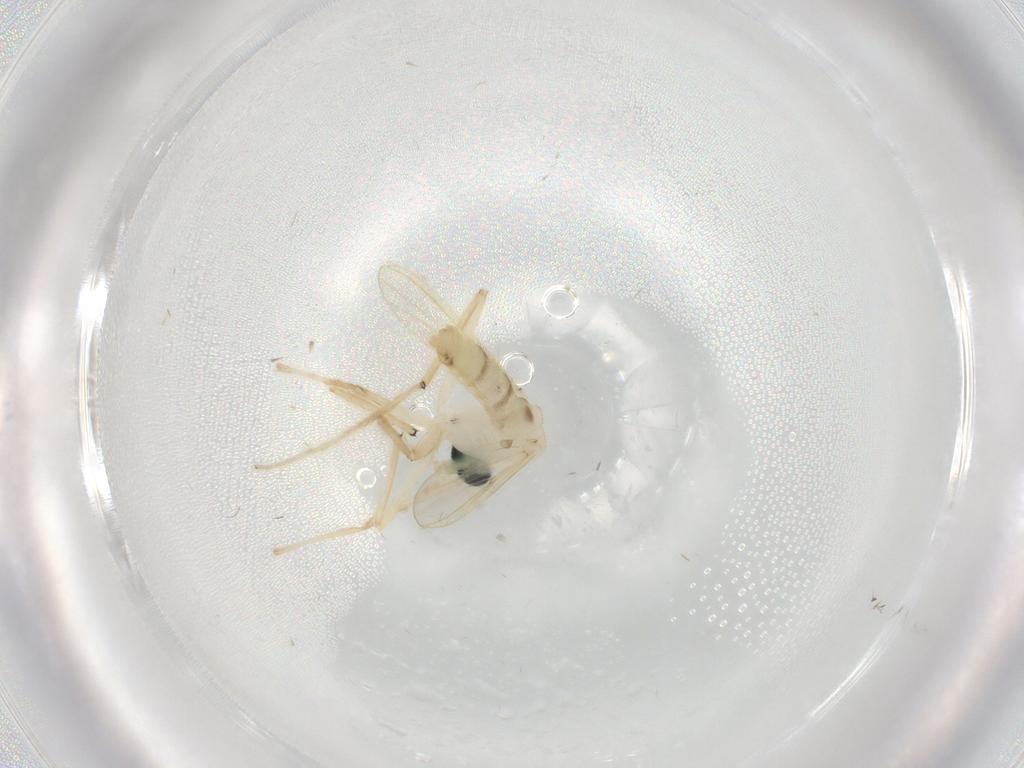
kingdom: Animalia
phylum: Arthropoda
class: Insecta
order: Diptera
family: Chironomidae
